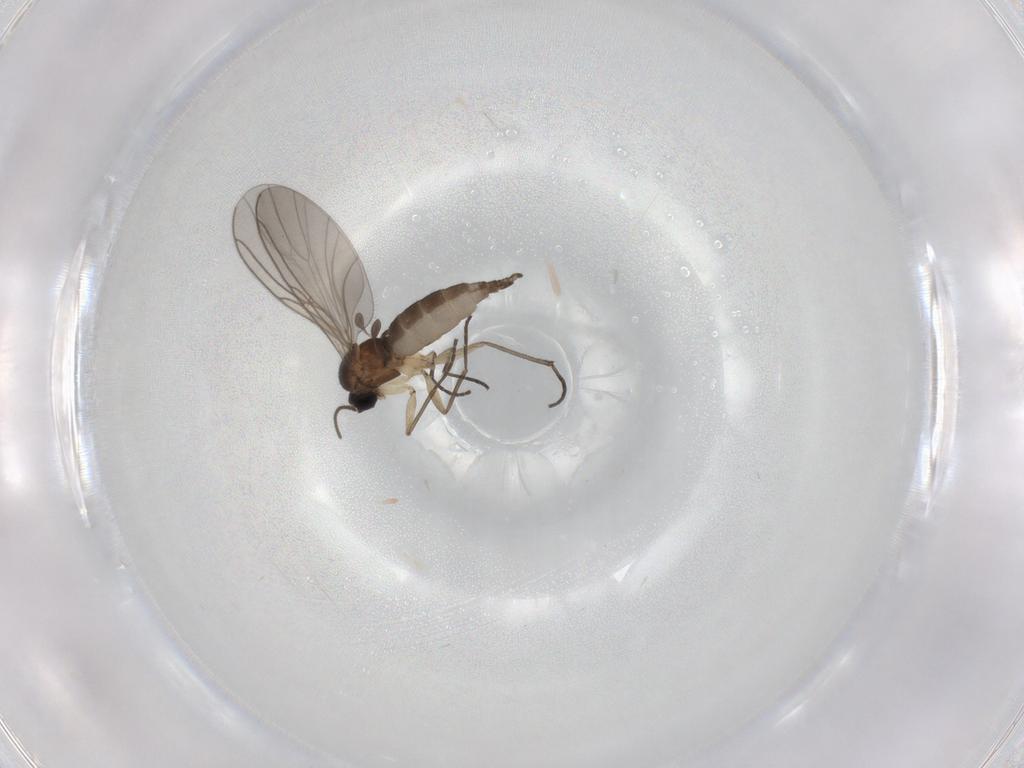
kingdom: Animalia
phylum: Arthropoda
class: Insecta
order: Diptera
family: Sciaridae
